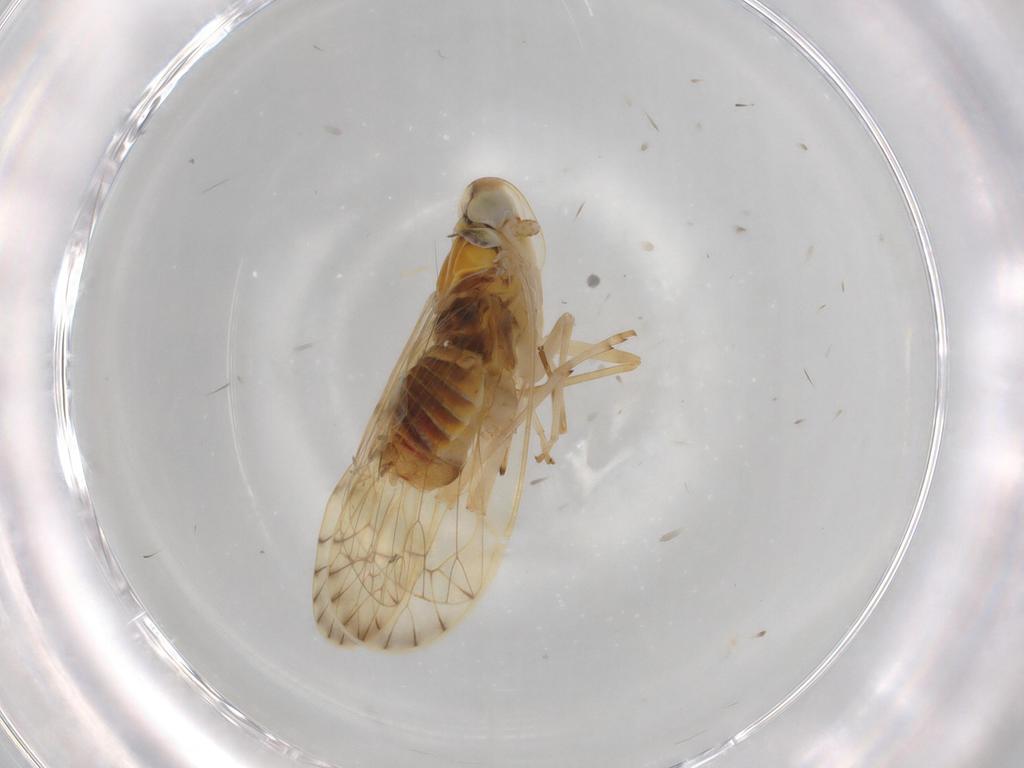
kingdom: Animalia
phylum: Arthropoda
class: Insecta
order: Hemiptera
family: Kinnaridae
